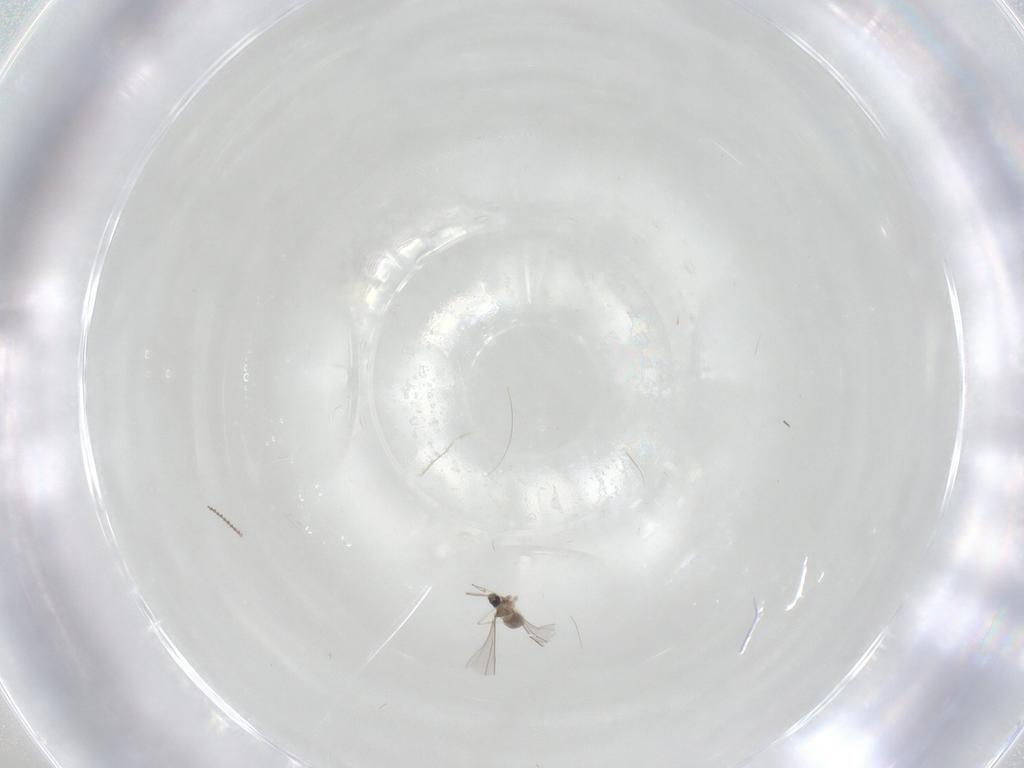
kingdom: Animalia
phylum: Arthropoda
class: Insecta
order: Diptera
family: Cecidomyiidae
